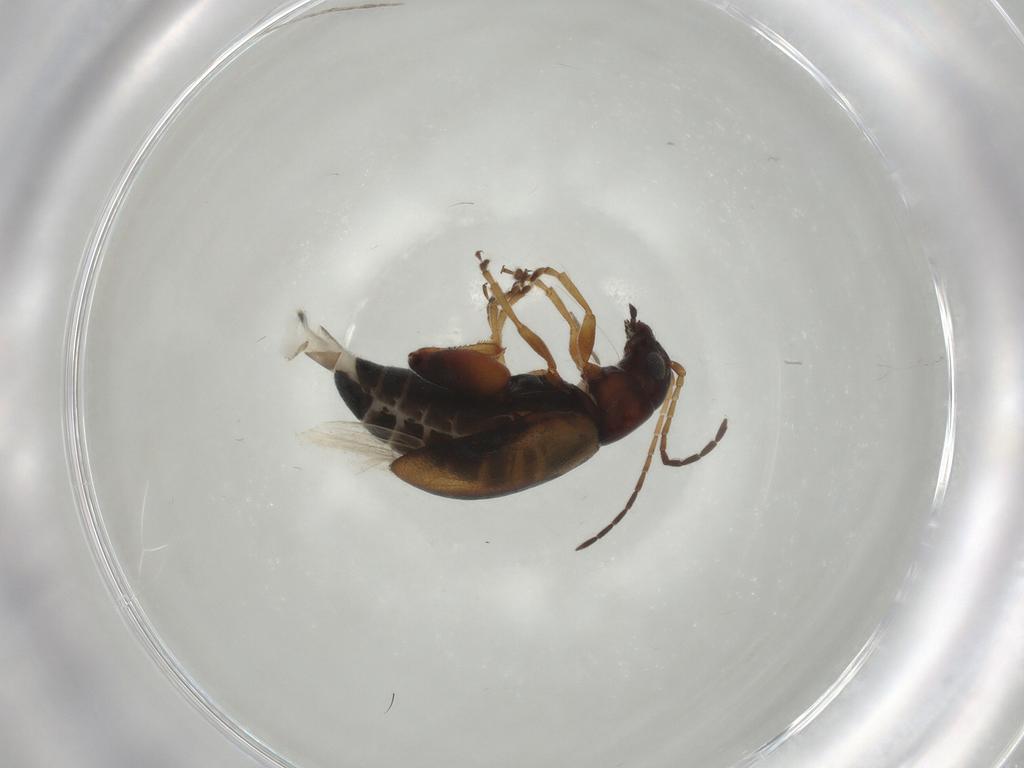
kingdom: Animalia
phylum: Arthropoda
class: Insecta
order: Coleoptera
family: Chrysomelidae
